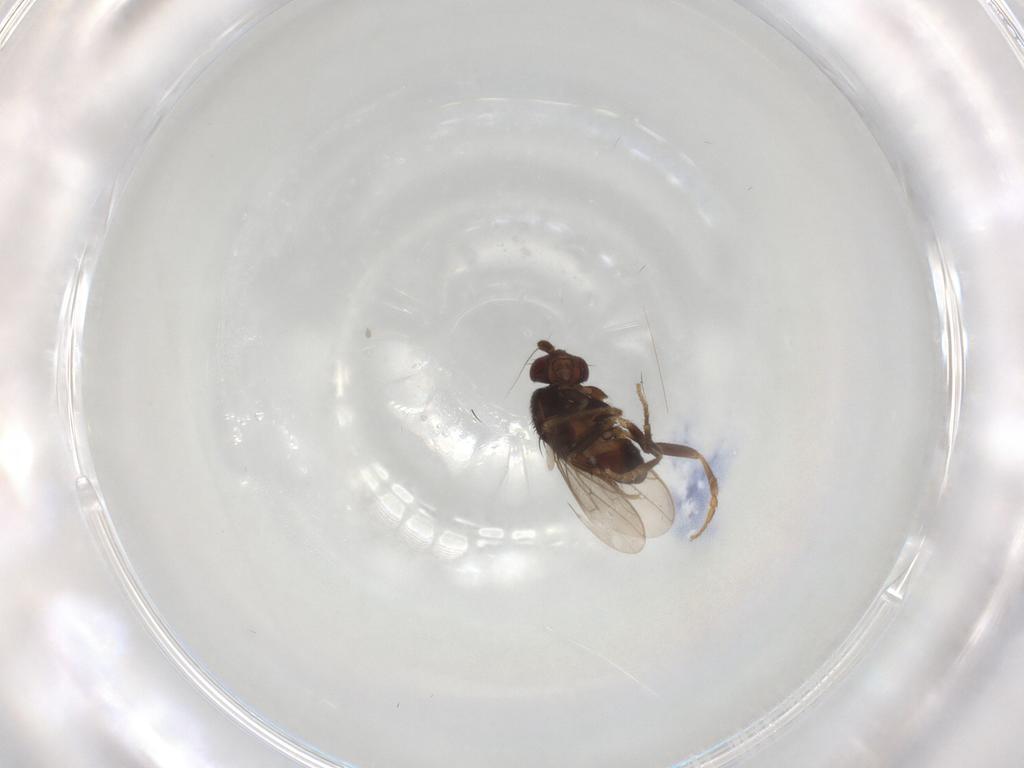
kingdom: Animalia
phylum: Arthropoda
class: Insecta
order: Diptera
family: Sphaeroceridae
